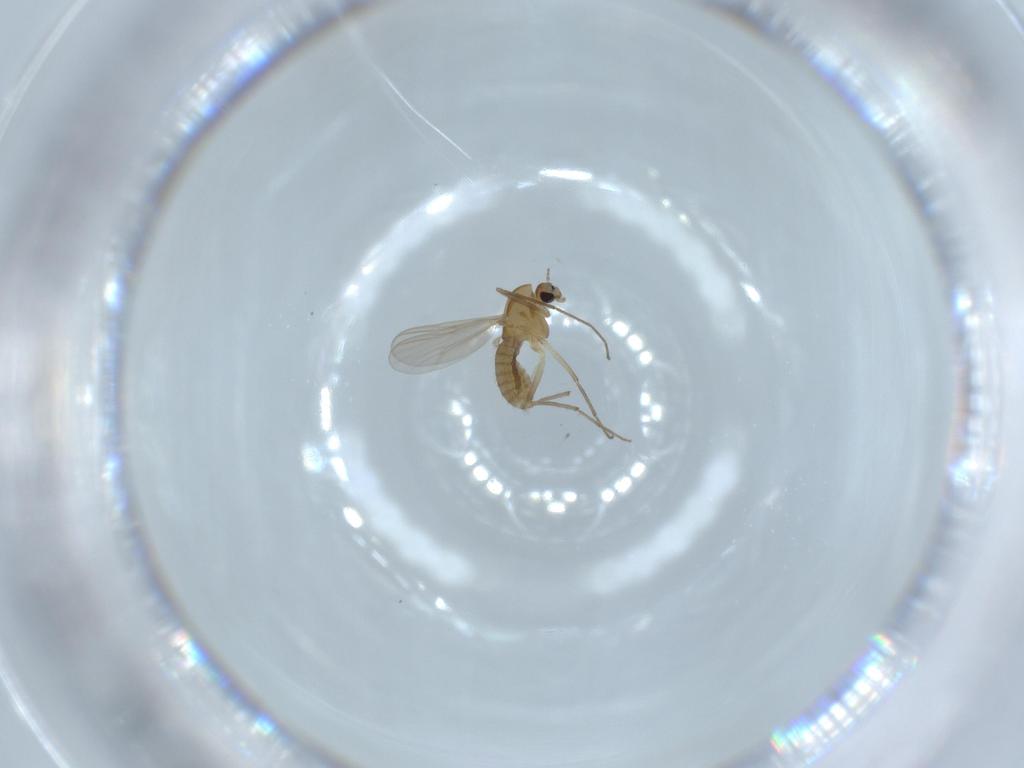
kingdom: Animalia
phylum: Arthropoda
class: Insecta
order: Diptera
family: Chironomidae
